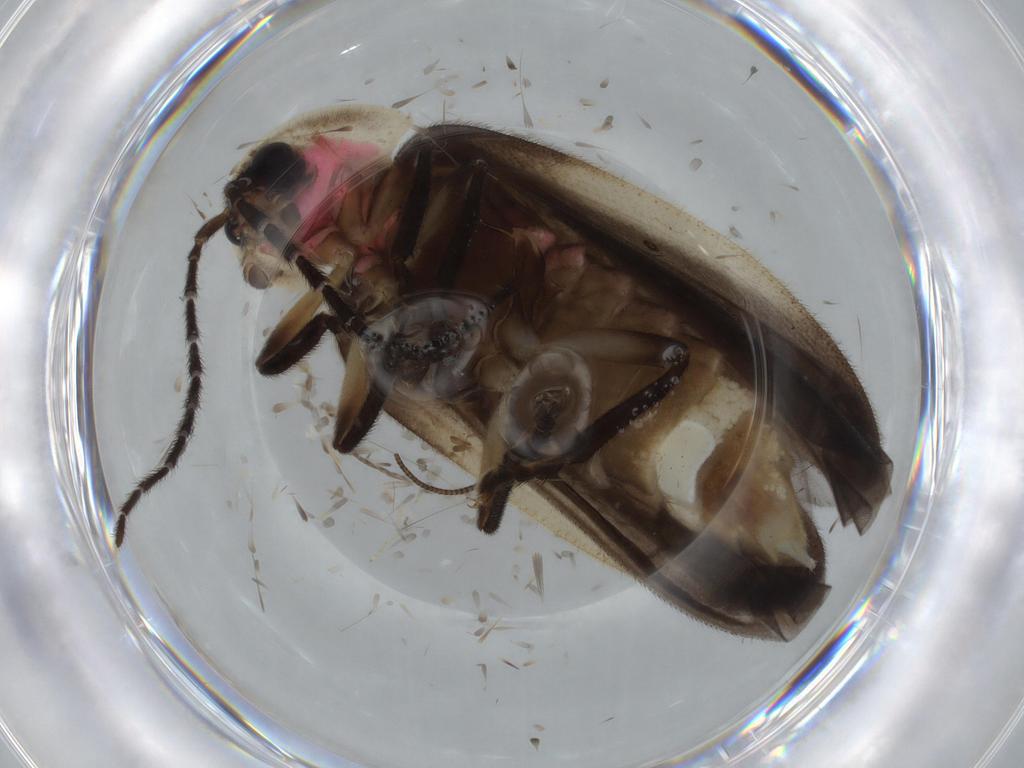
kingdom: Animalia
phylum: Arthropoda
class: Insecta
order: Coleoptera
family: Lampyridae
